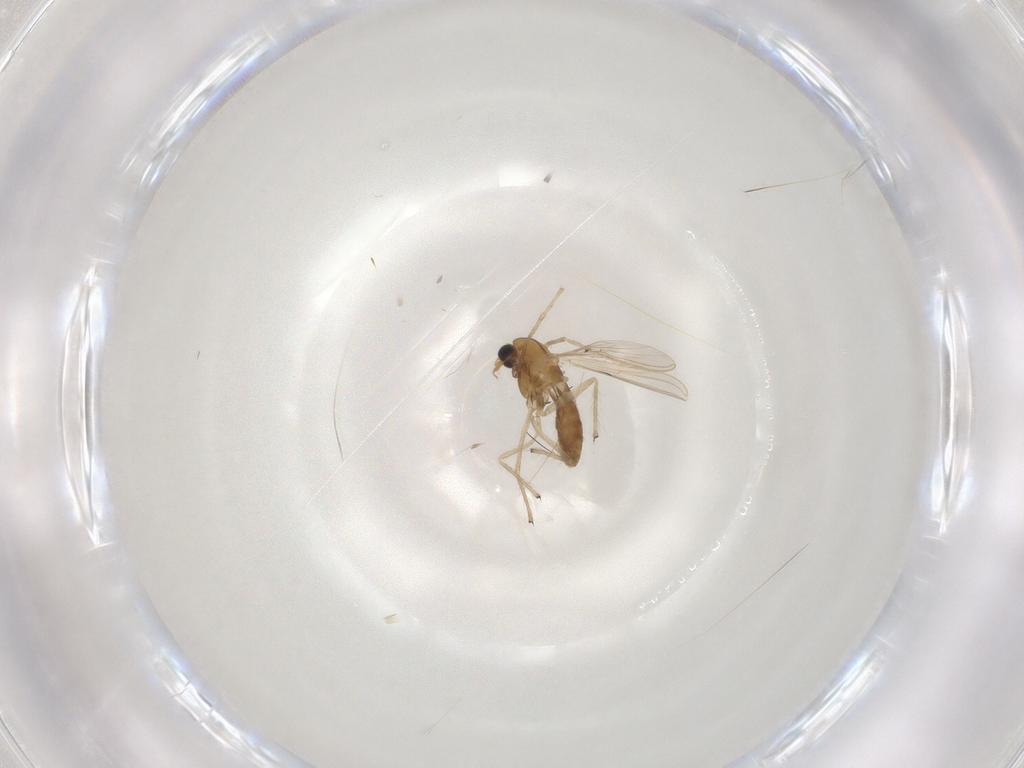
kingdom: Animalia
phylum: Arthropoda
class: Insecta
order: Diptera
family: Chironomidae
